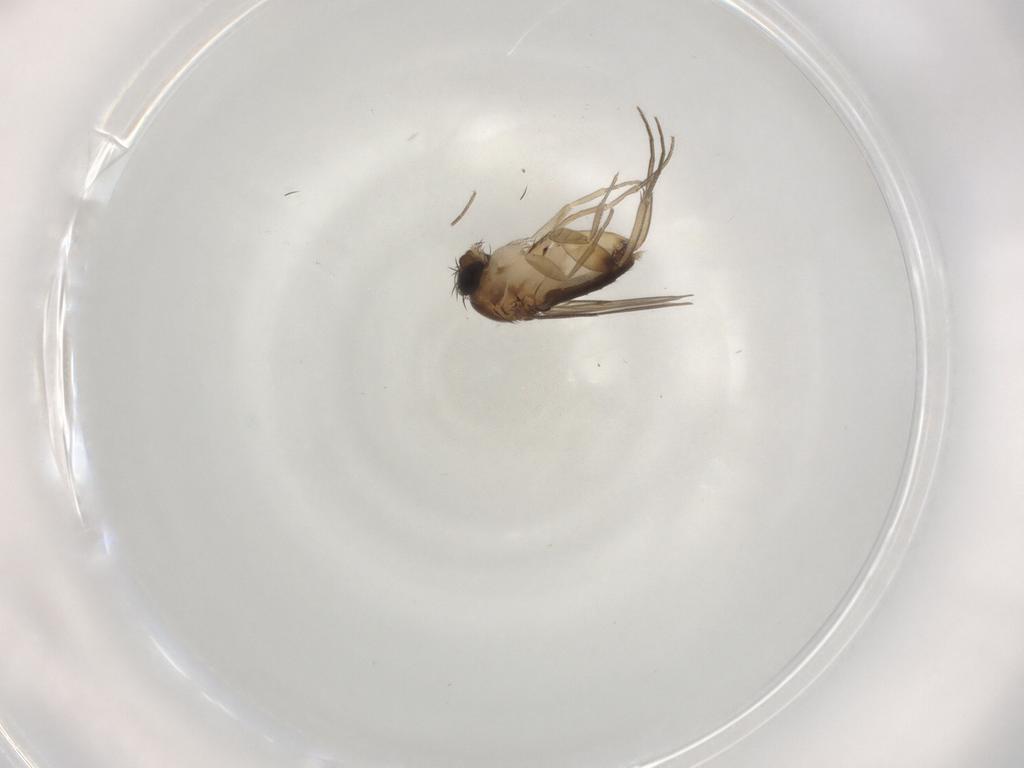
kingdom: Animalia
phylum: Arthropoda
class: Insecta
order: Diptera
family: Phoridae
